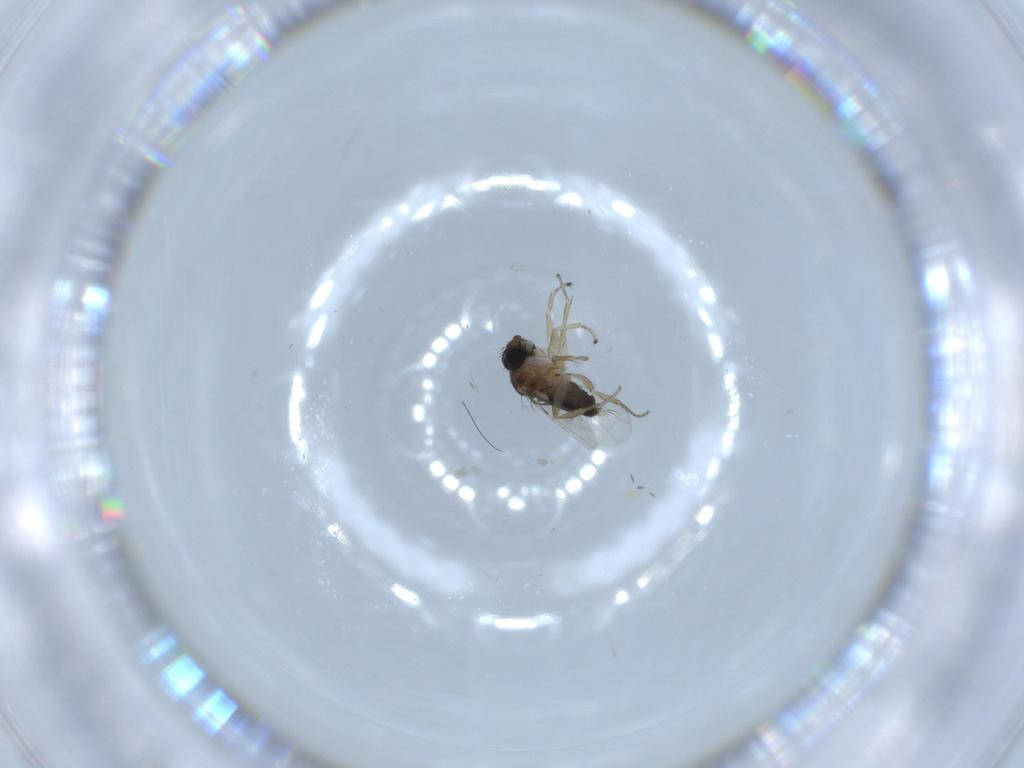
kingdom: Animalia
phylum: Arthropoda
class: Insecta
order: Diptera
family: Phoridae
